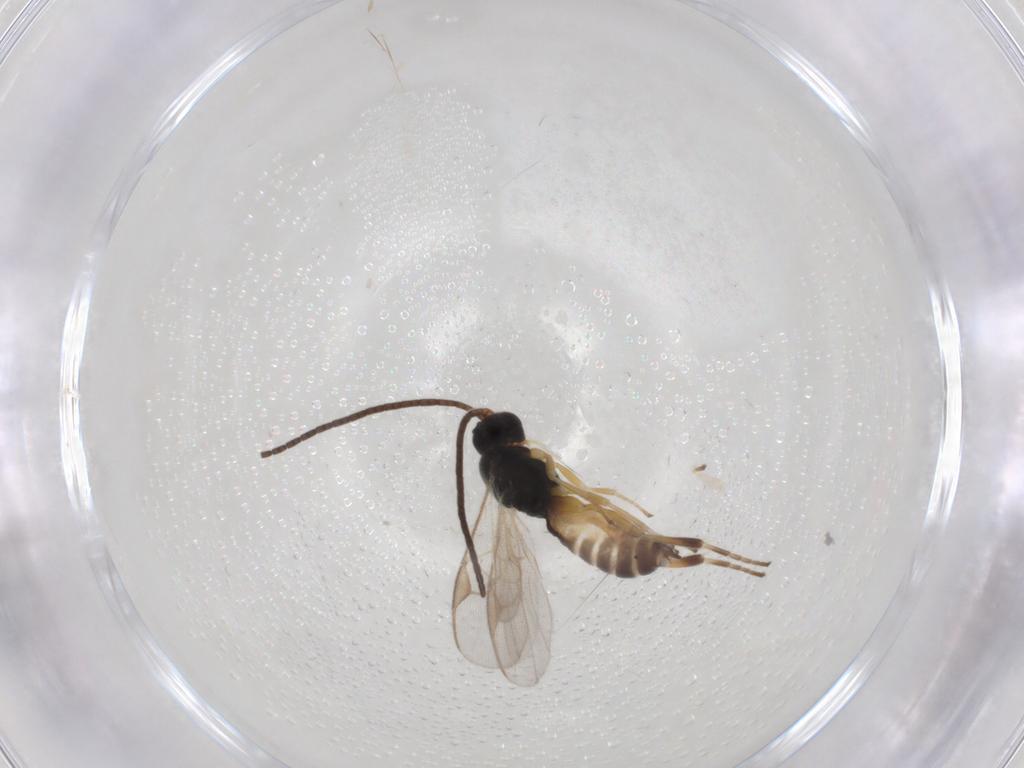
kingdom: Animalia
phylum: Arthropoda
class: Insecta
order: Hymenoptera
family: Braconidae
